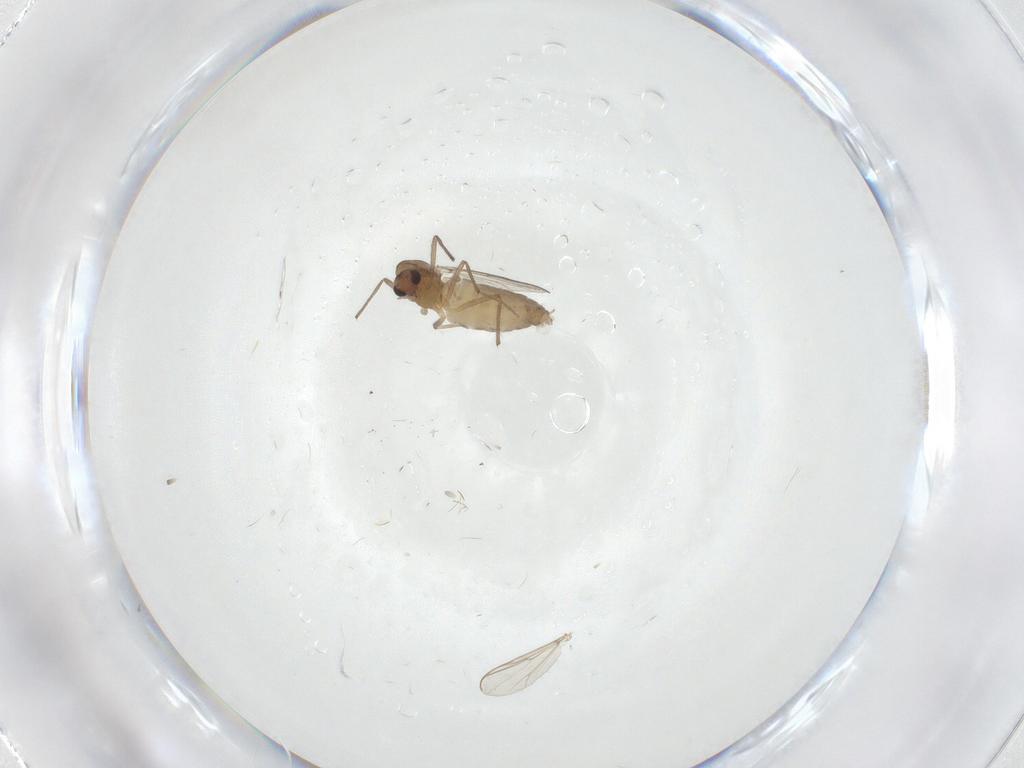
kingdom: Animalia
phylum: Arthropoda
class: Insecta
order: Diptera
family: Chironomidae
